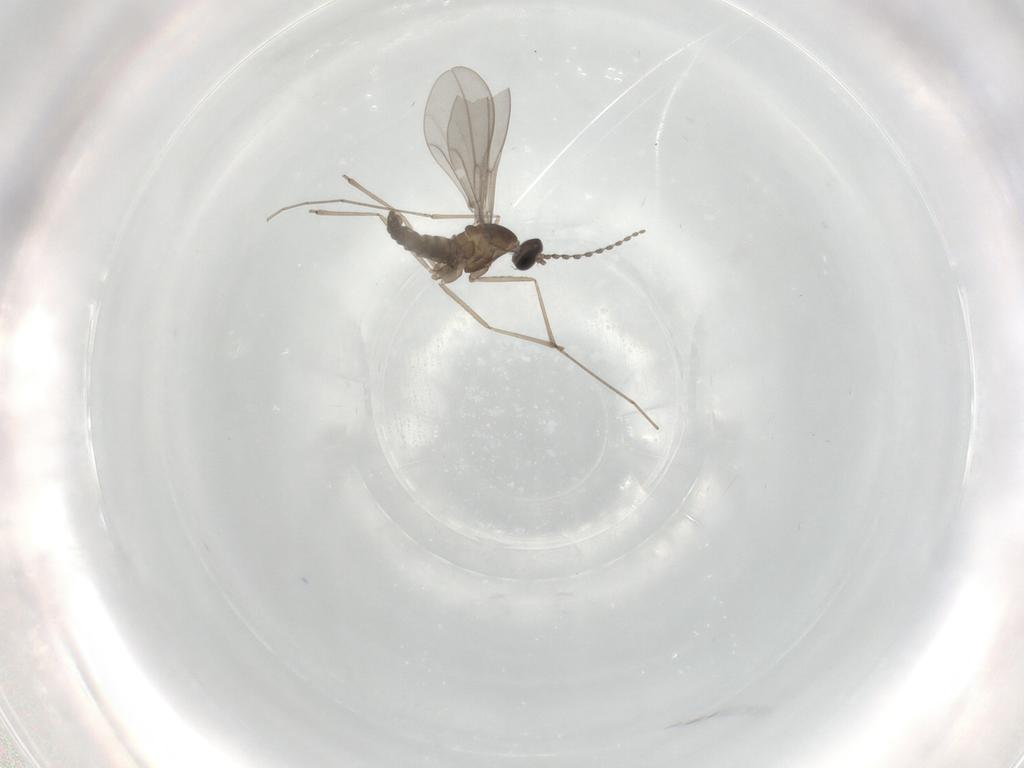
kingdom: Animalia
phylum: Arthropoda
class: Insecta
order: Diptera
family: Cecidomyiidae
